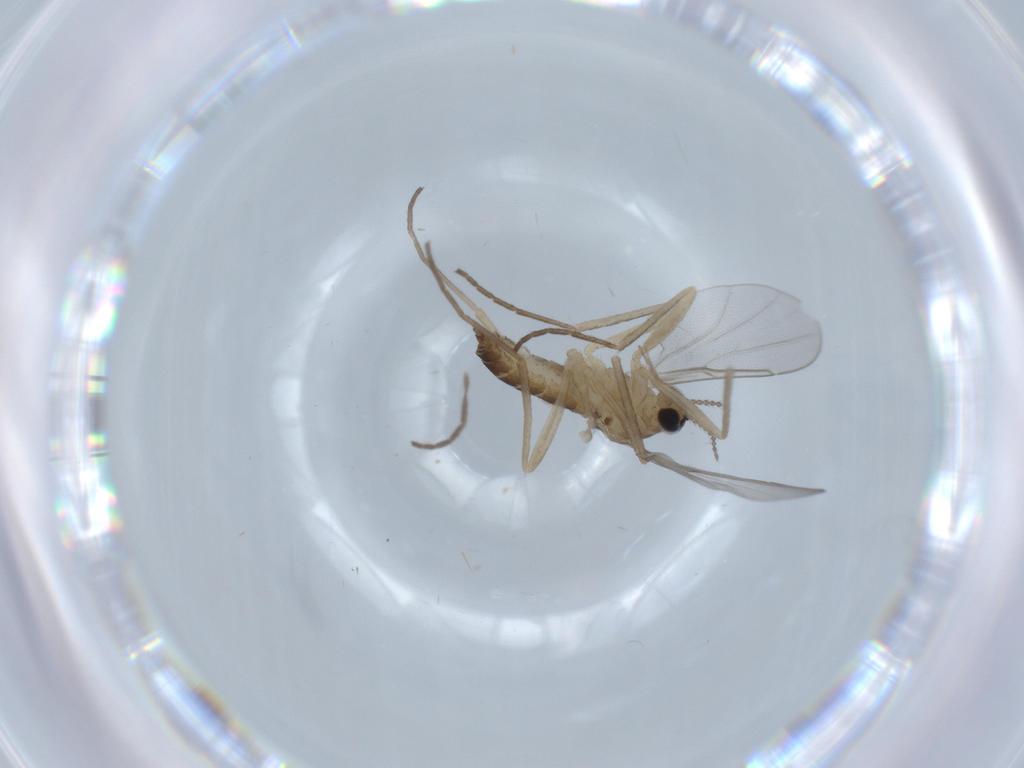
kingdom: Animalia
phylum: Arthropoda
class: Insecta
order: Diptera
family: Cecidomyiidae
